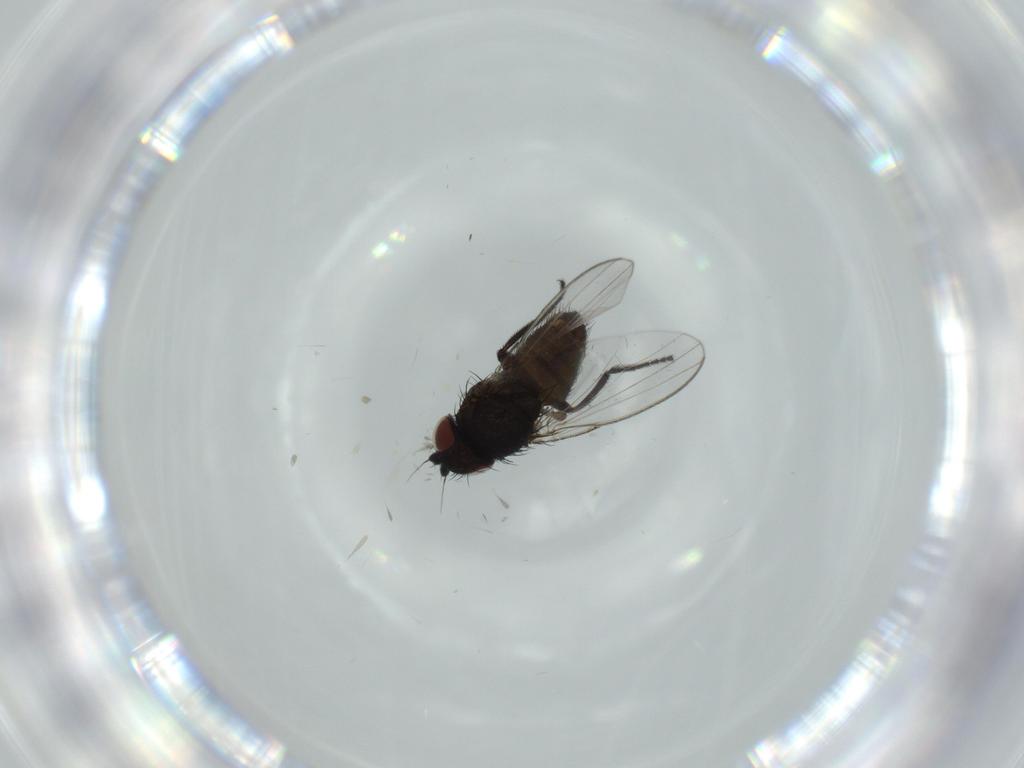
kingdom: Animalia
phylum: Arthropoda
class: Insecta
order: Diptera
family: Milichiidae
